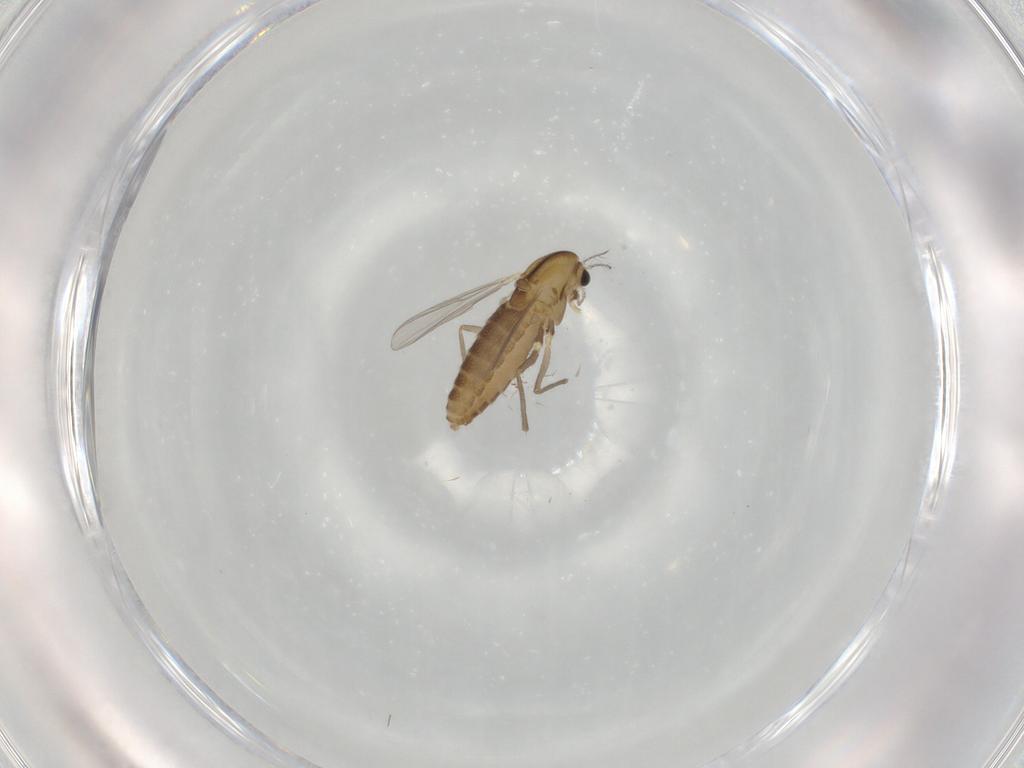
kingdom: Animalia
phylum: Arthropoda
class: Insecta
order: Diptera
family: Chironomidae
